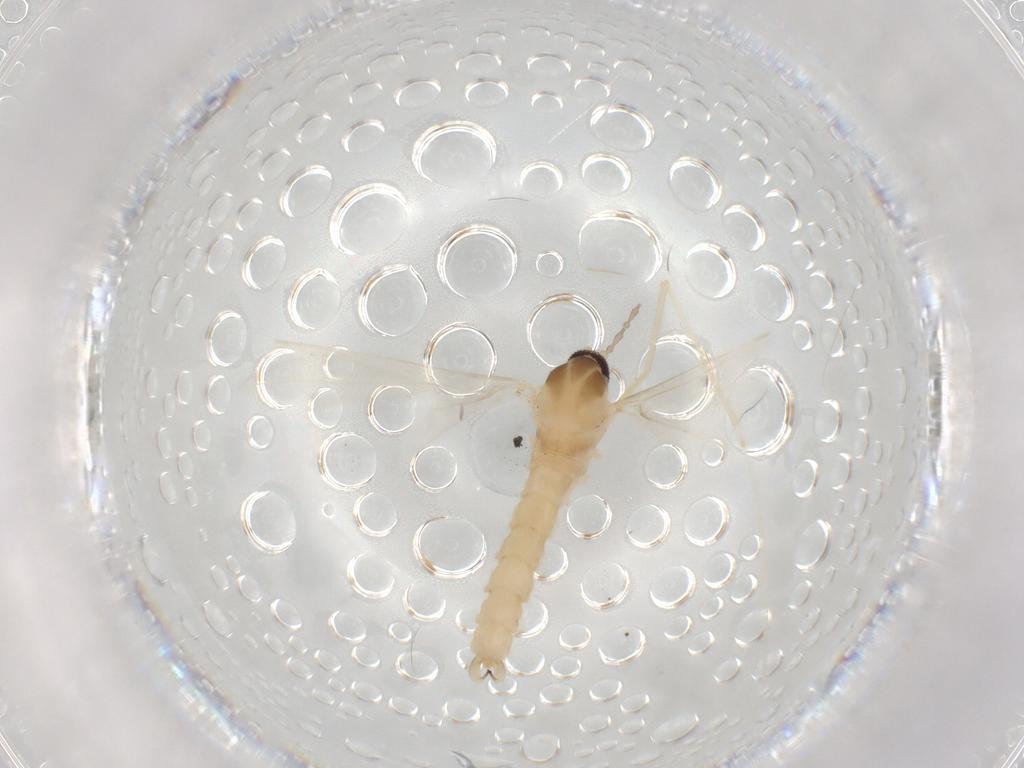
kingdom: Animalia
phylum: Arthropoda
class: Insecta
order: Diptera
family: Cecidomyiidae
